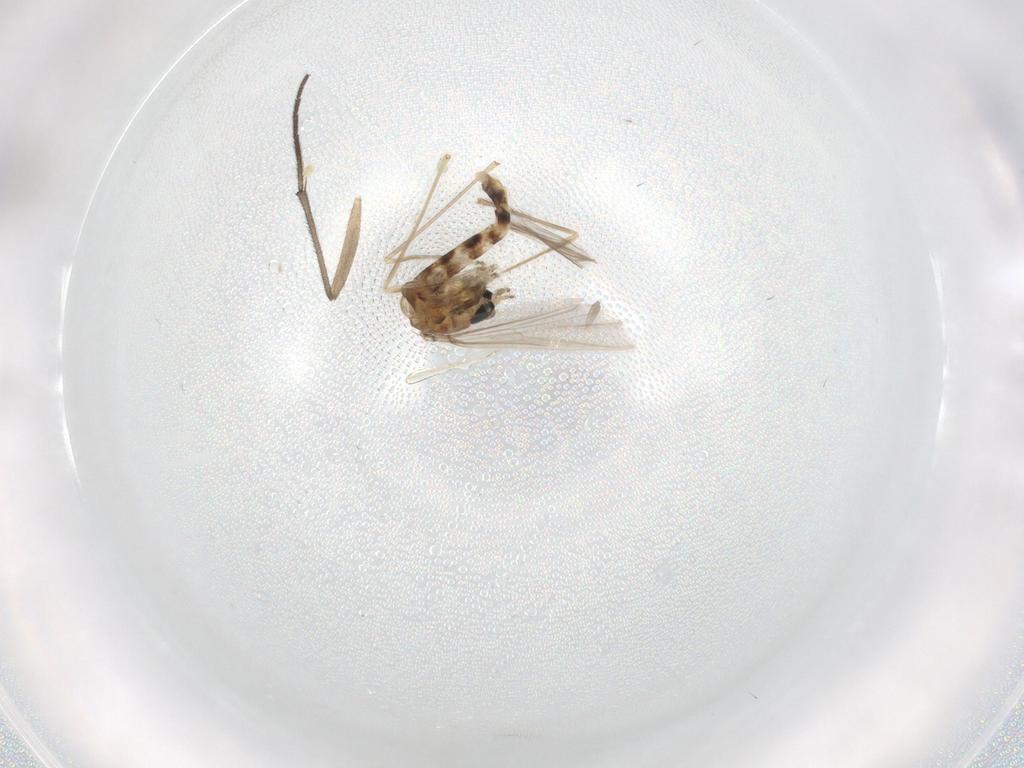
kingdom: Animalia
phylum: Arthropoda
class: Insecta
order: Diptera
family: Chironomidae
